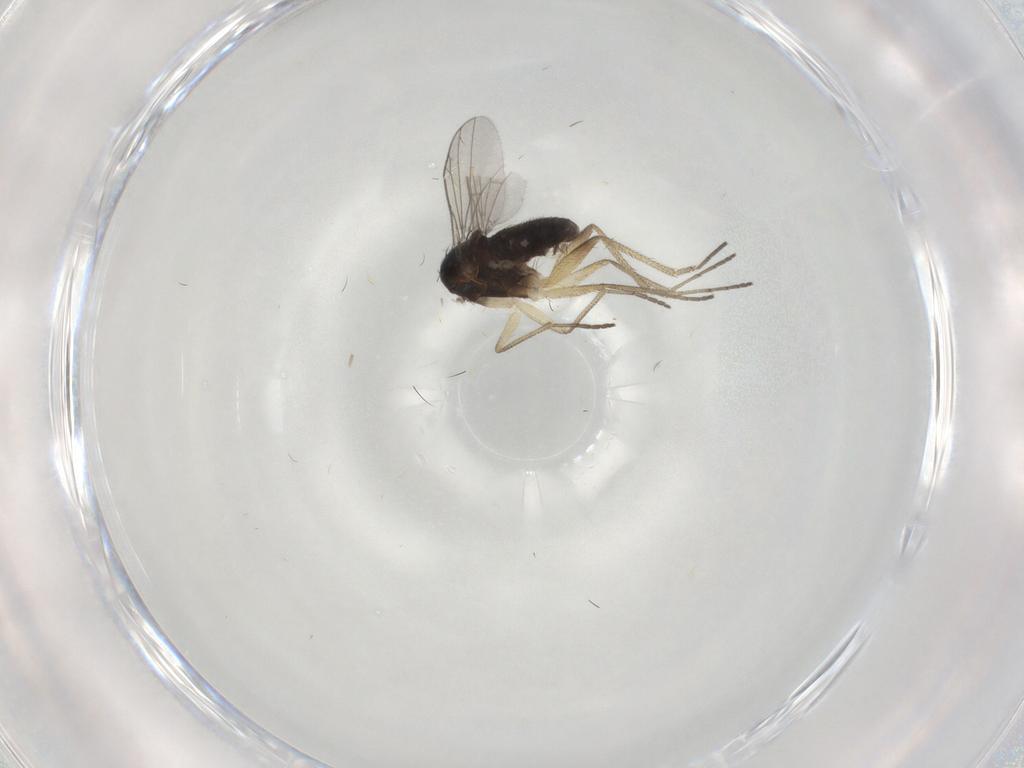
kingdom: Animalia
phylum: Arthropoda
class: Insecta
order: Diptera
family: Dolichopodidae
